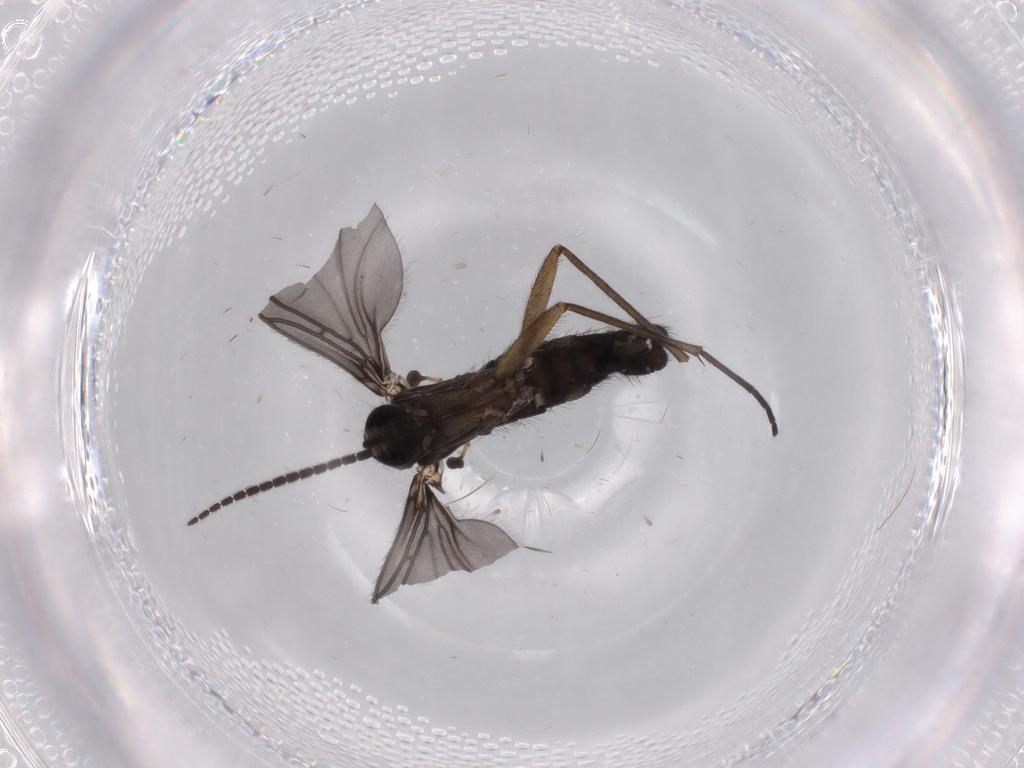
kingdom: Animalia
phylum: Arthropoda
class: Insecta
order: Diptera
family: Sciaridae
